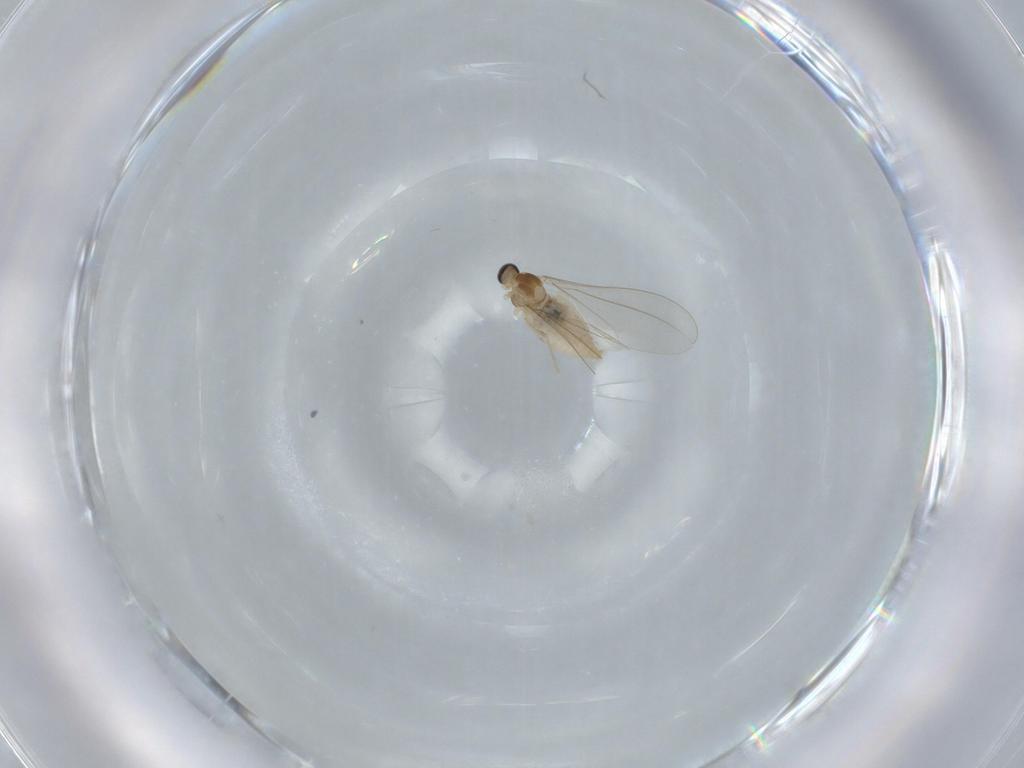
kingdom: Animalia
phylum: Arthropoda
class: Insecta
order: Diptera
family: Cecidomyiidae
